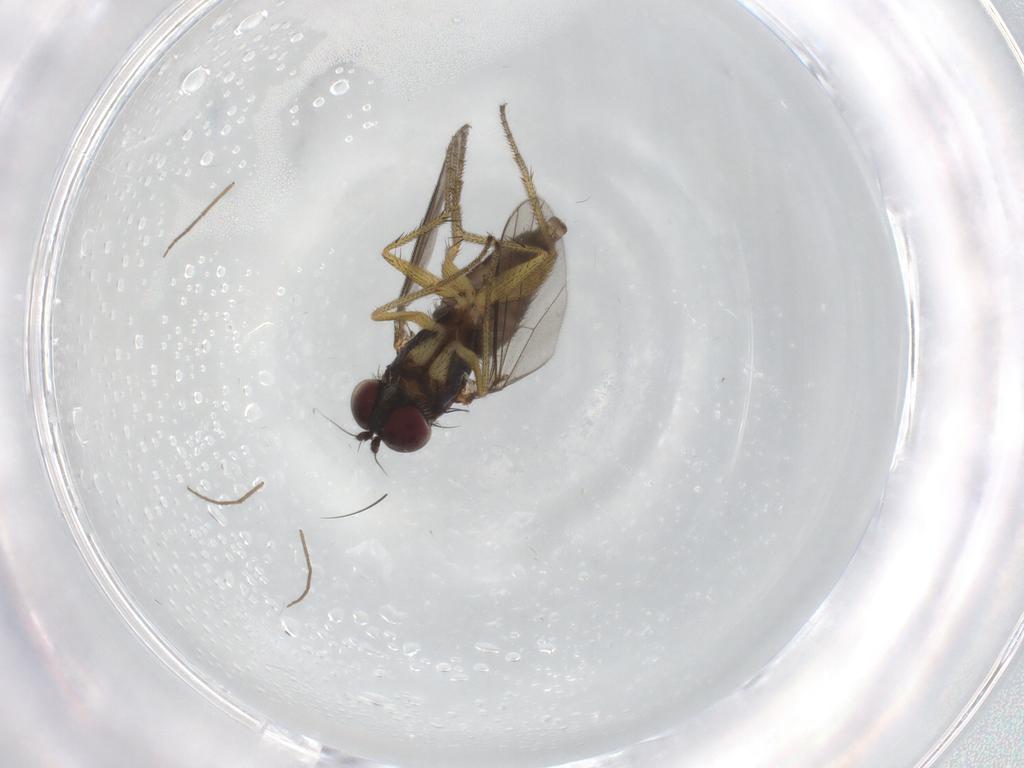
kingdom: Animalia
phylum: Arthropoda
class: Insecta
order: Diptera
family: Chironomidae
